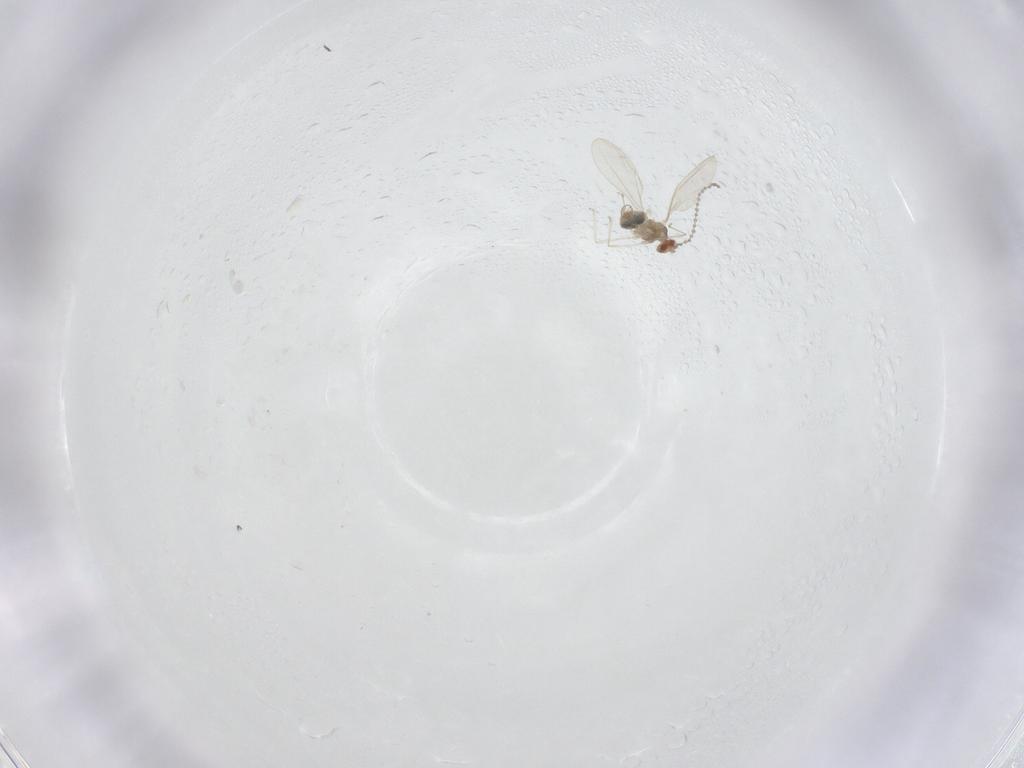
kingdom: Animalia
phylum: Arthropoda
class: Insecta
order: Diptera
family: Cecidomyiidae
